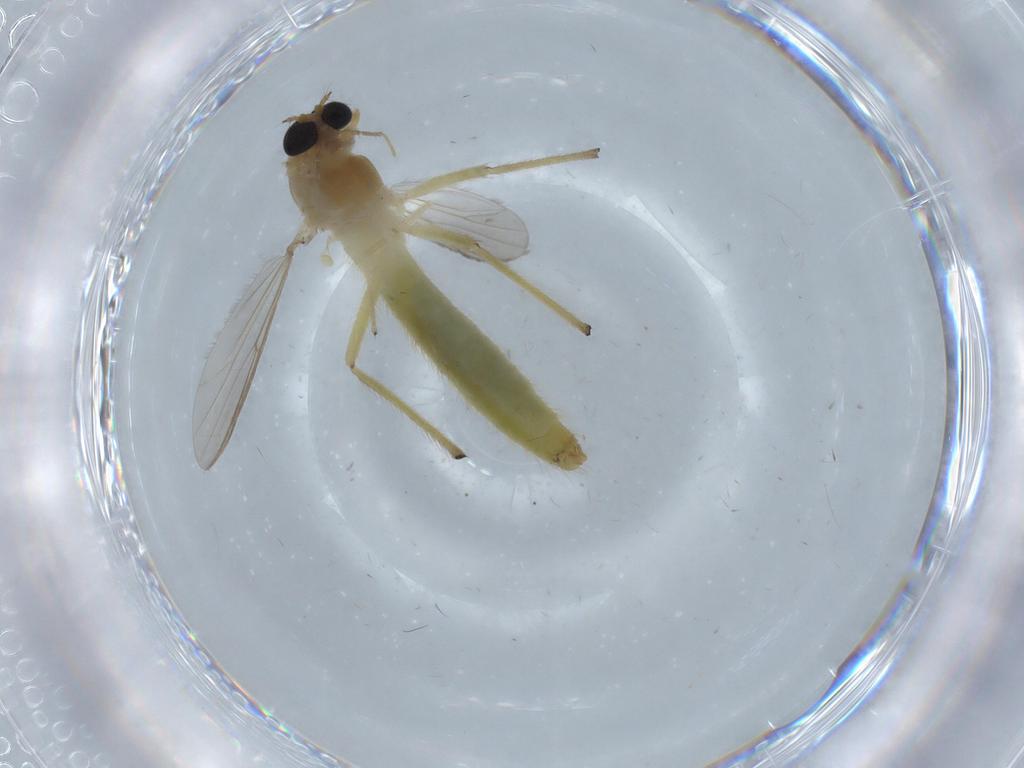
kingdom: Animalia
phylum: Arthropoda
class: Insecta
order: Diptera
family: Cecidomyiidae
